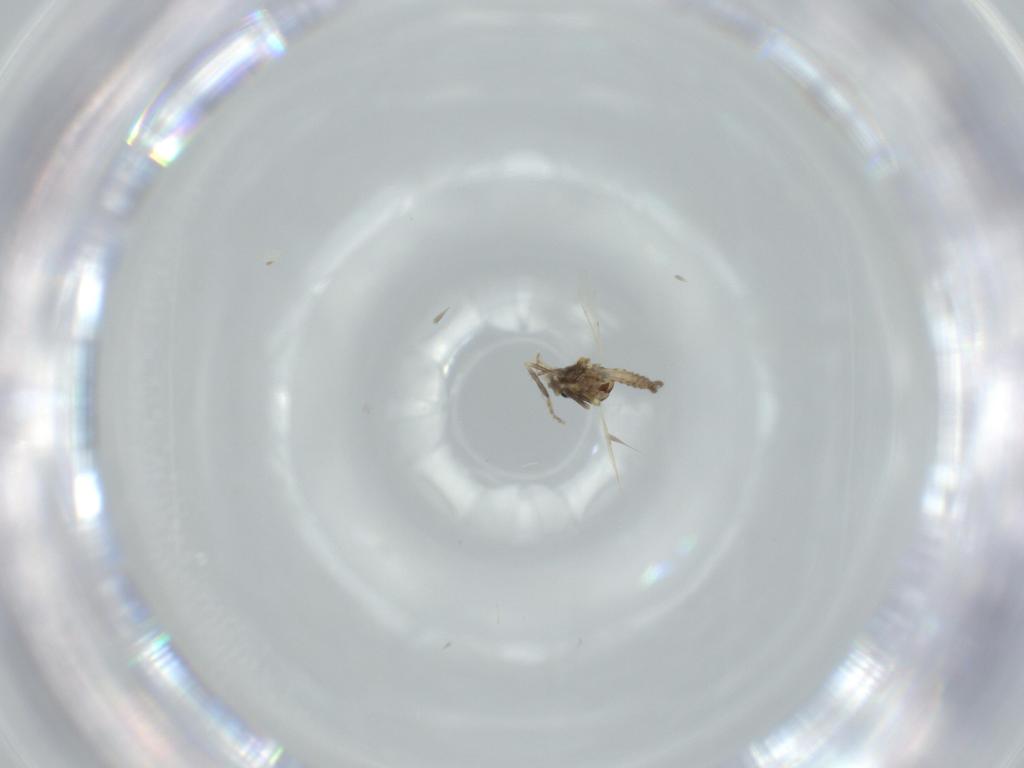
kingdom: Animalia
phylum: Arthropoda
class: Insecta
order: Diptera
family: Ceratopogonidae
